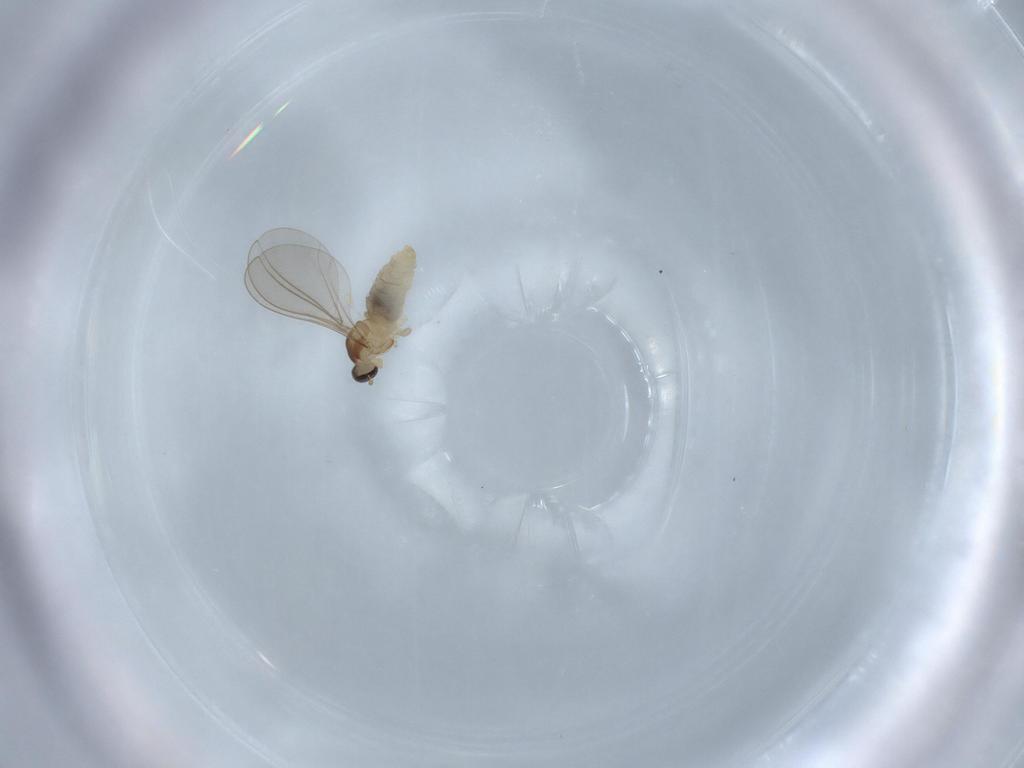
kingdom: Animalia
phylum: Arthropoda
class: Insecta
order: Diptera
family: Cecidomyiidae
